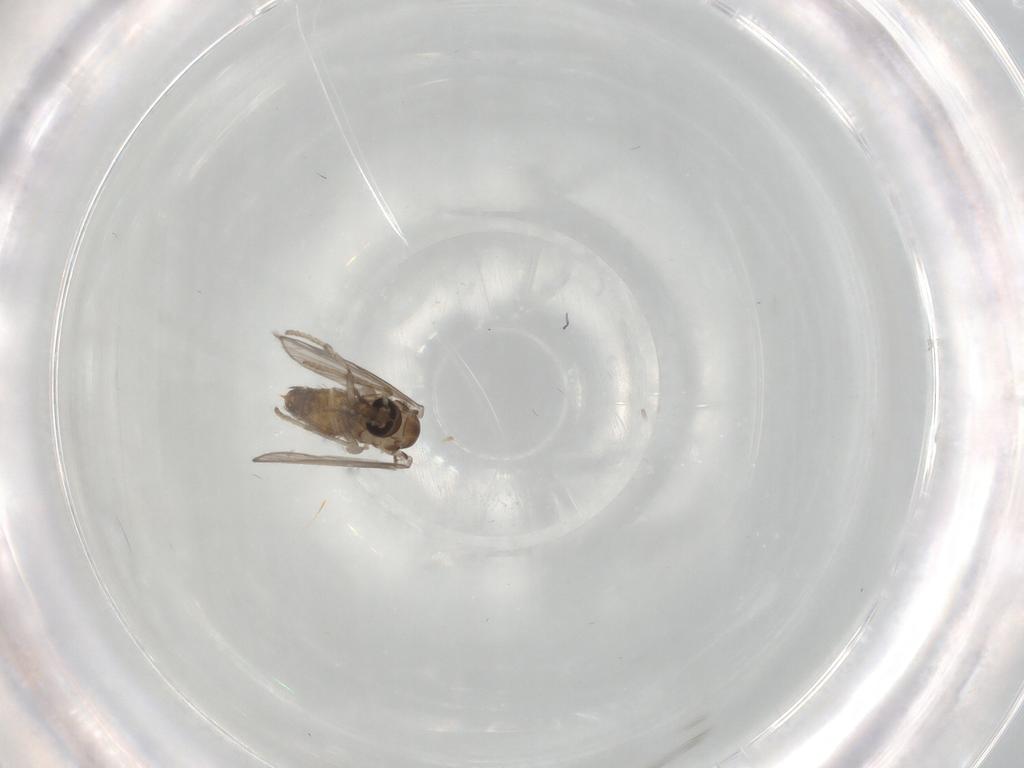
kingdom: Animalia
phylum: Arthropoda
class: Insecta
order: Diptera
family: Psychodidae
